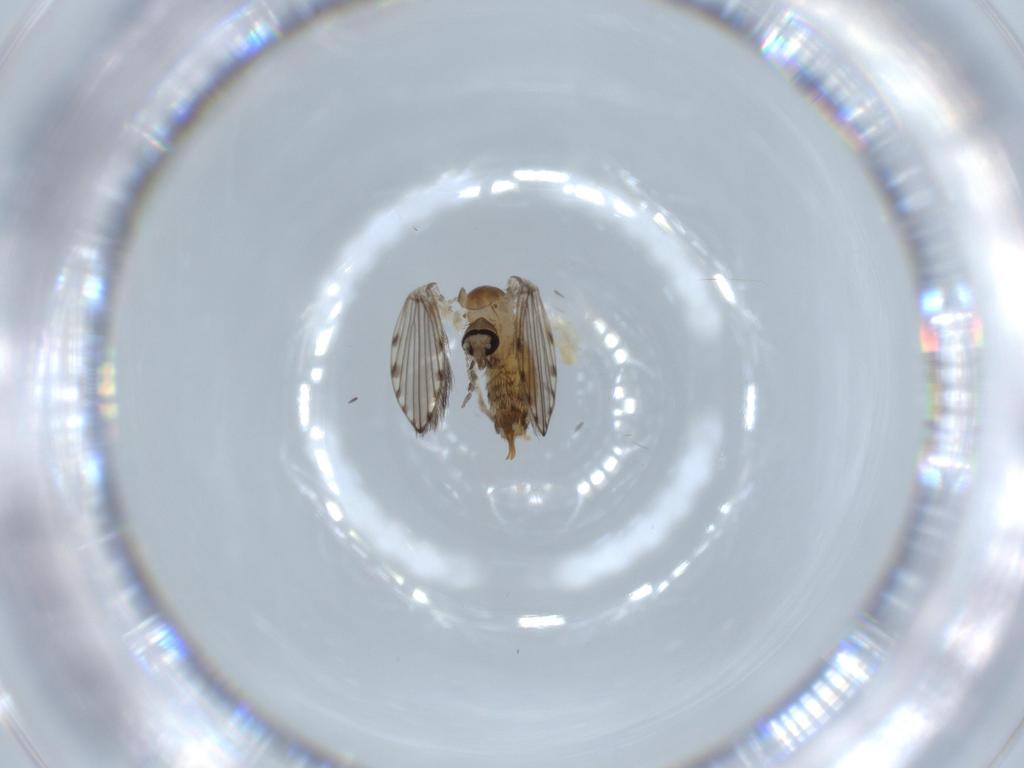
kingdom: Animalia
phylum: Arthropoda
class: Insecta
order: Diptera
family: Psychodidae
